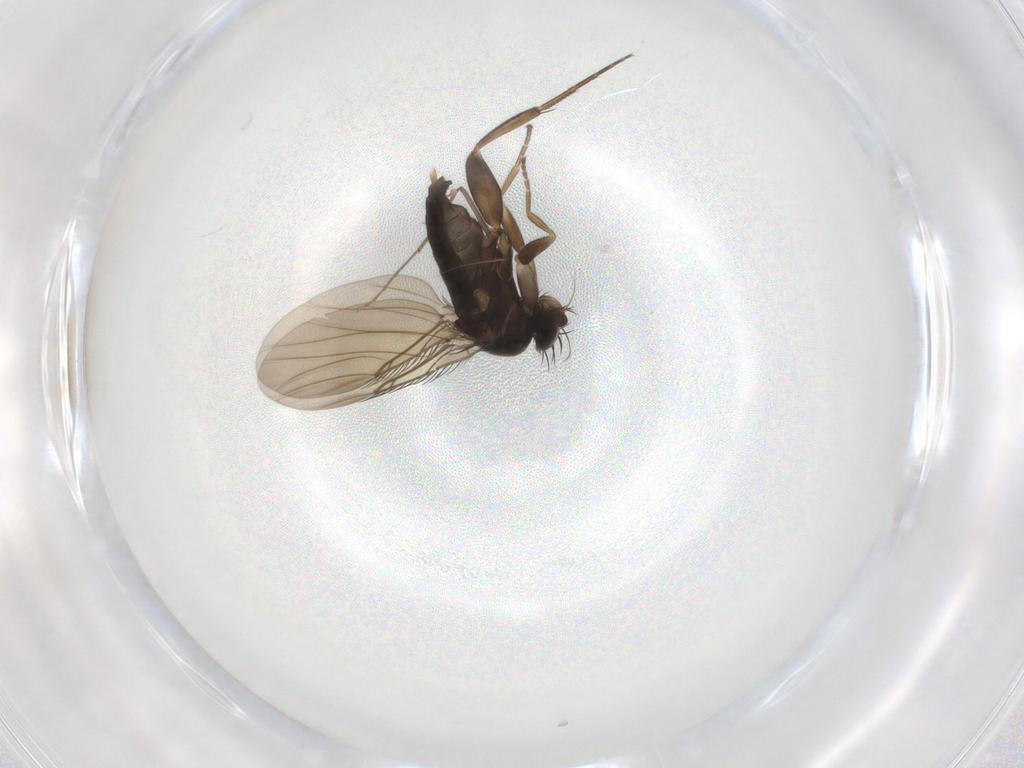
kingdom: Animalia
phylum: Arthropoda
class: Insecta
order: Diptera
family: Phoridae
